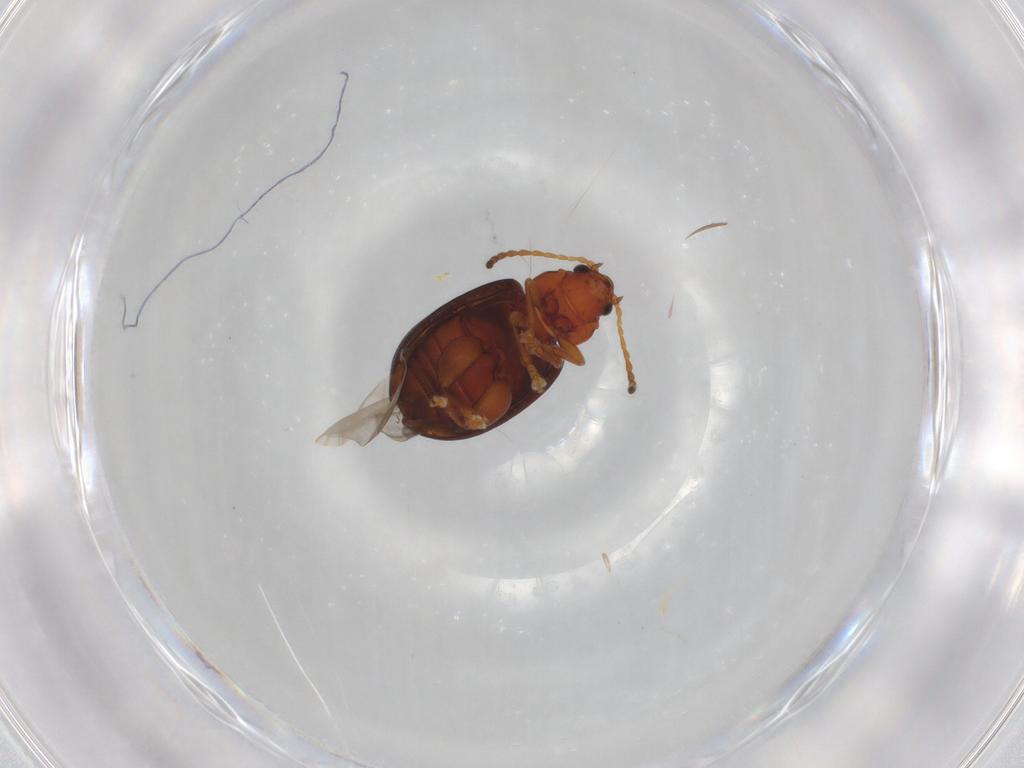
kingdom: Animalia
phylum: Arthropoda
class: Insecta
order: Coleoptera
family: Chrysomelidae
